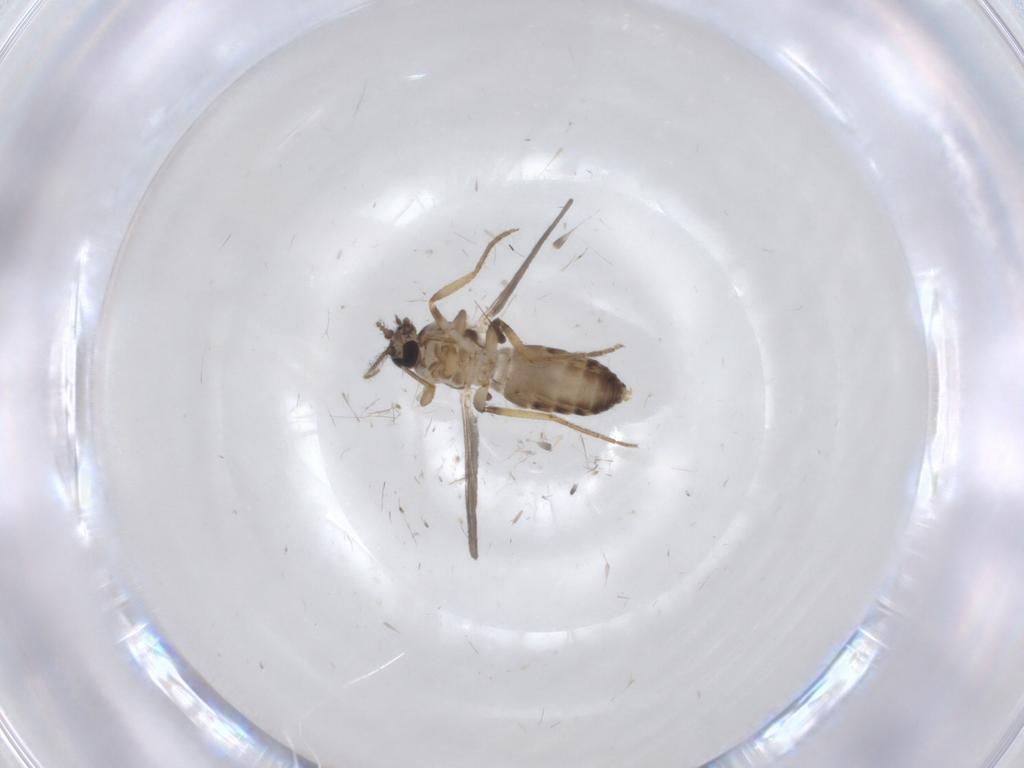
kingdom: Animalia
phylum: Arthropoda
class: Insecta
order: Diptera
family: Ceratopogonidae
